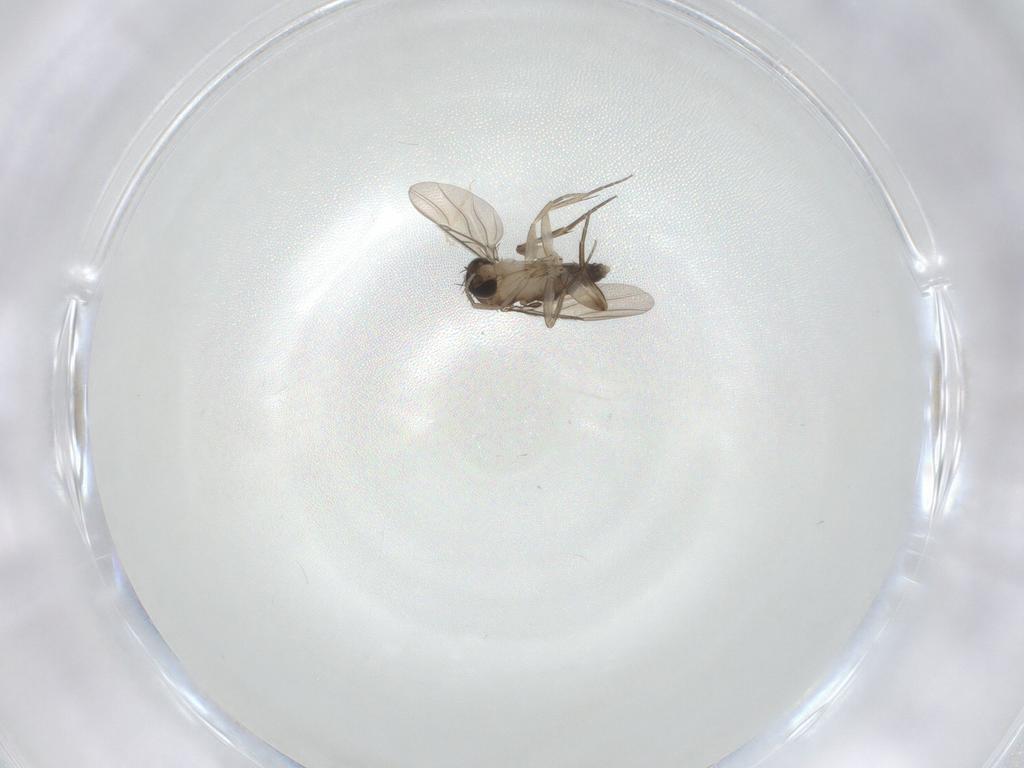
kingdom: Animalia
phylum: Arthropoda
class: Insecta
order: Diptera
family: Phoridae
